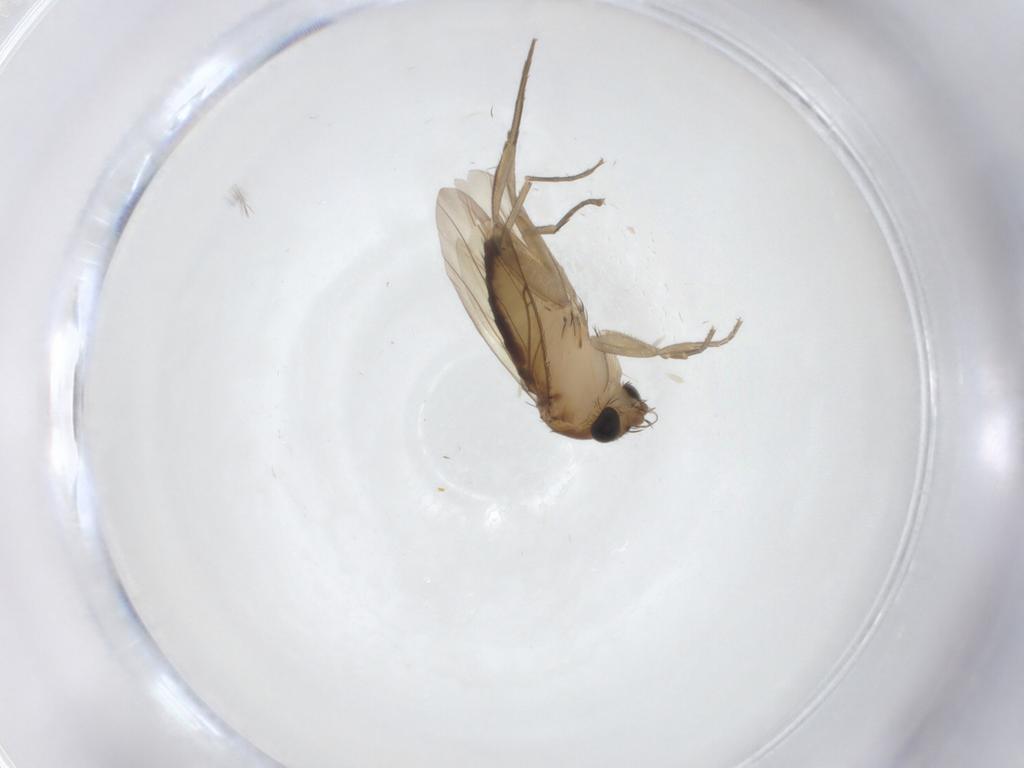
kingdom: Animalia
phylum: Arthropoda
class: Insecta
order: Diptera
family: Phoridae
